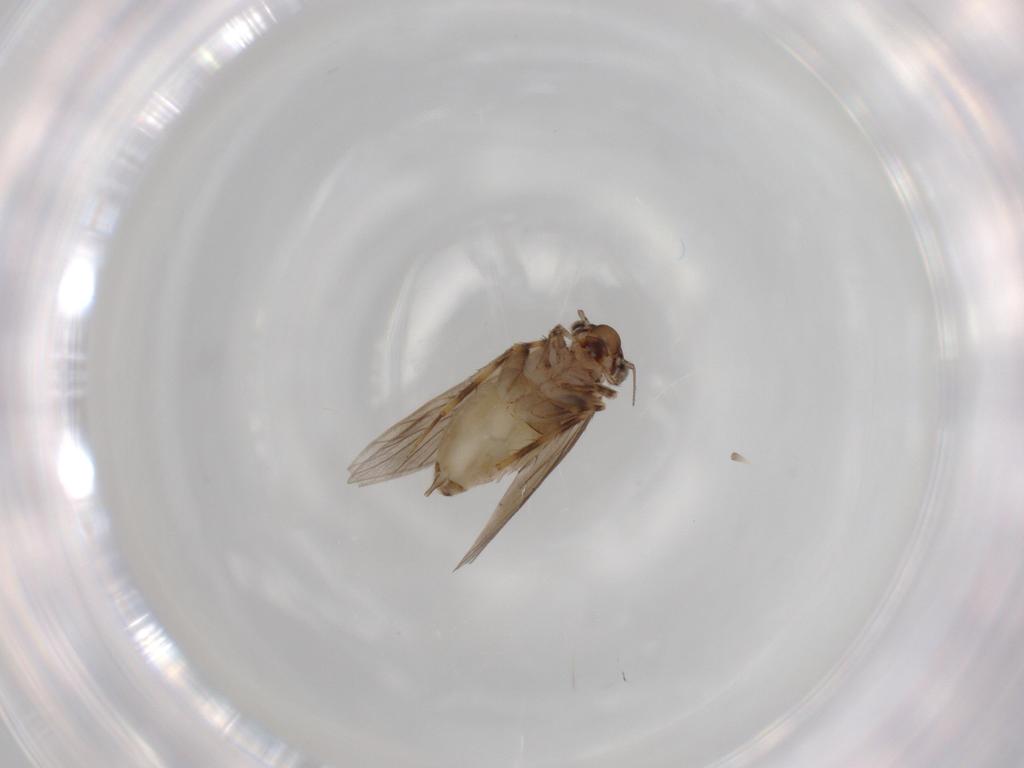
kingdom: Animalia
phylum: Arthropoda
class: Insecta
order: Psocodea
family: Lepidopsocidae
